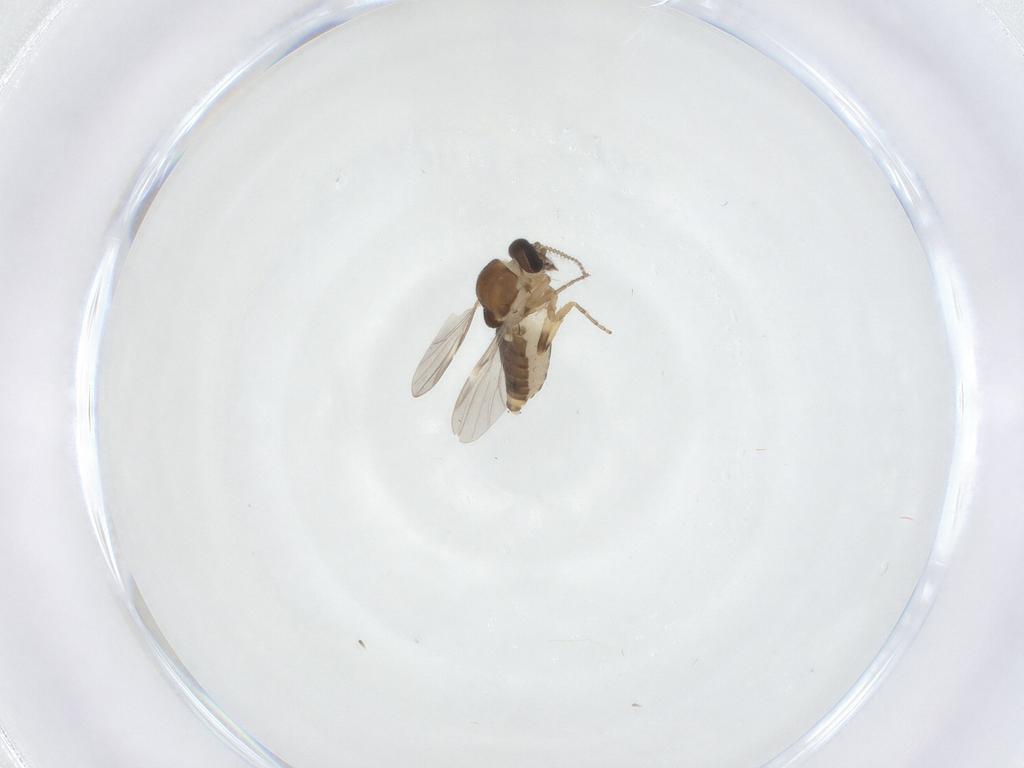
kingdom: Animalia
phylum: Arthropoda
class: Insecta
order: Diptera
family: Ceratopogonidae
